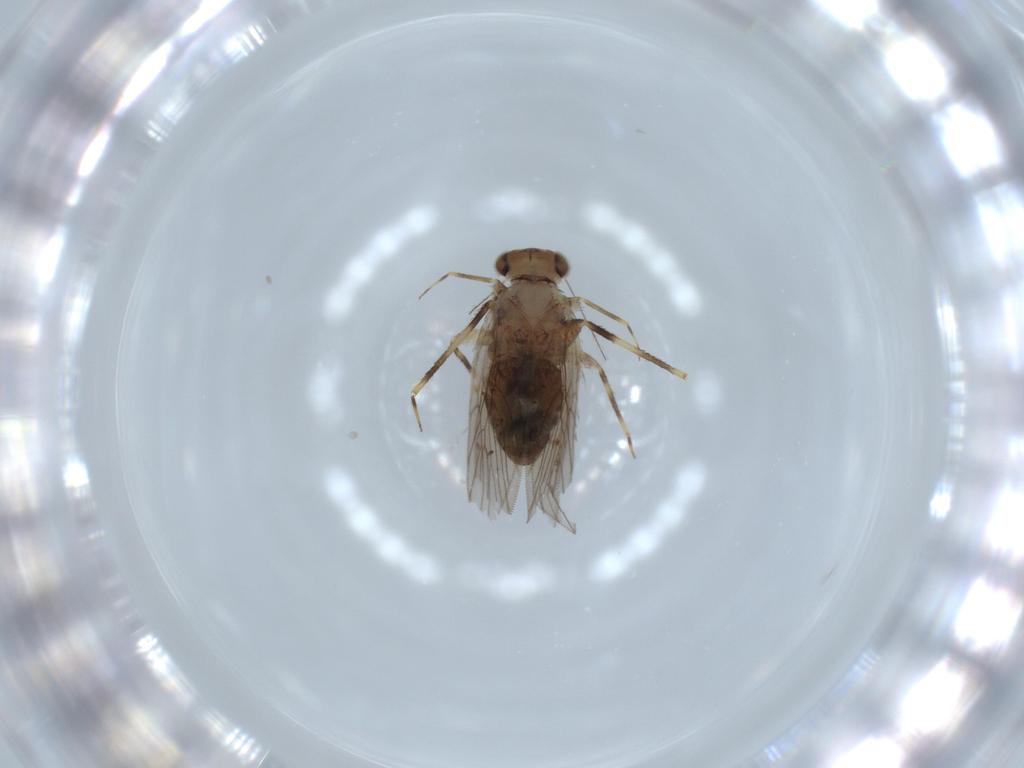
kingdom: Animalia
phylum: Arthropoda
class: Insecta
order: Psocodea
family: Lepidopsocidae
